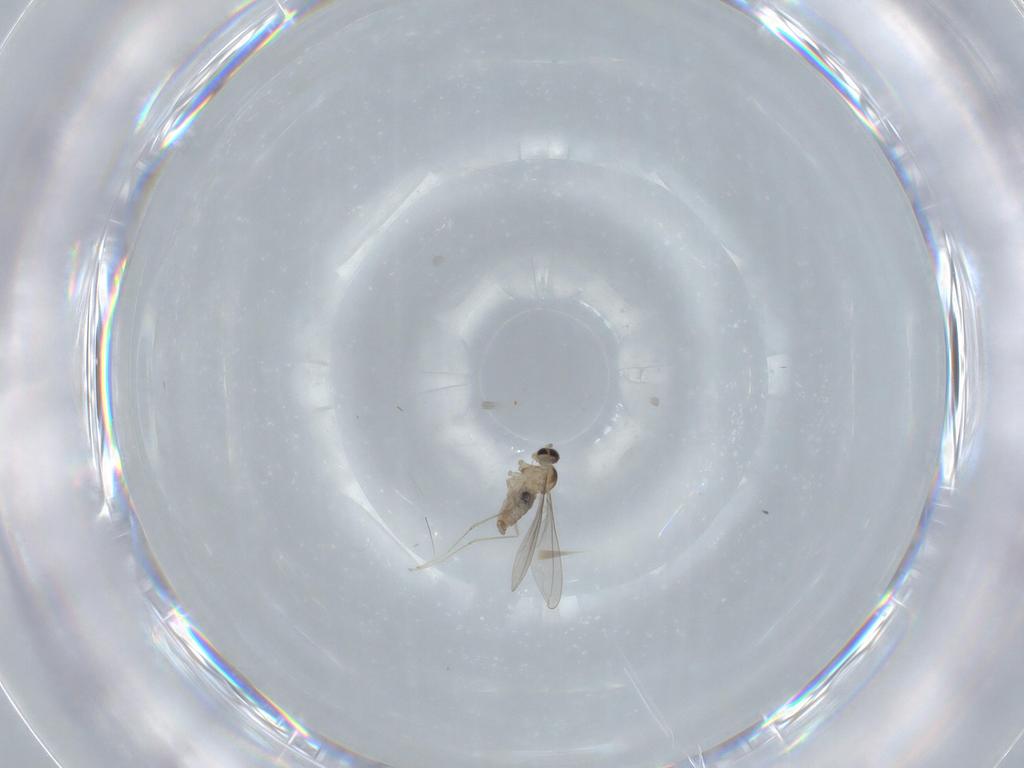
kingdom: Animalia
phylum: Arthropoda
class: Insecta
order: Diptera
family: Cecidomyiidae
